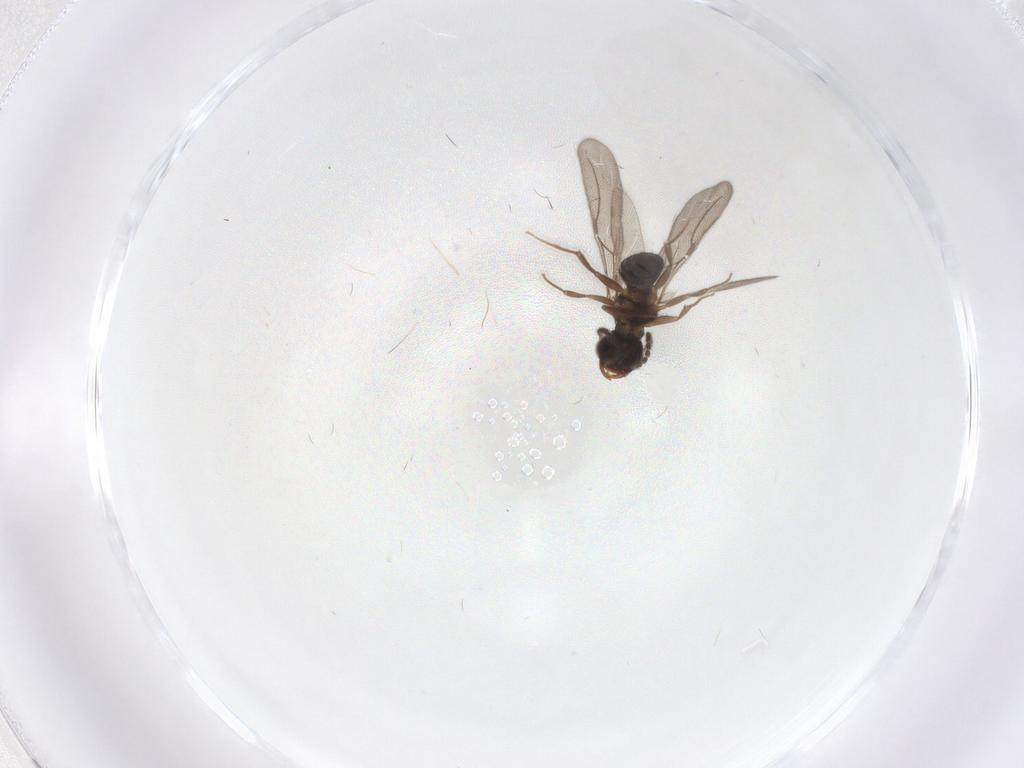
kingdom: Animalia
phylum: Arthropoda
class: Insecta
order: Hymenoptera
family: Bethylidae
